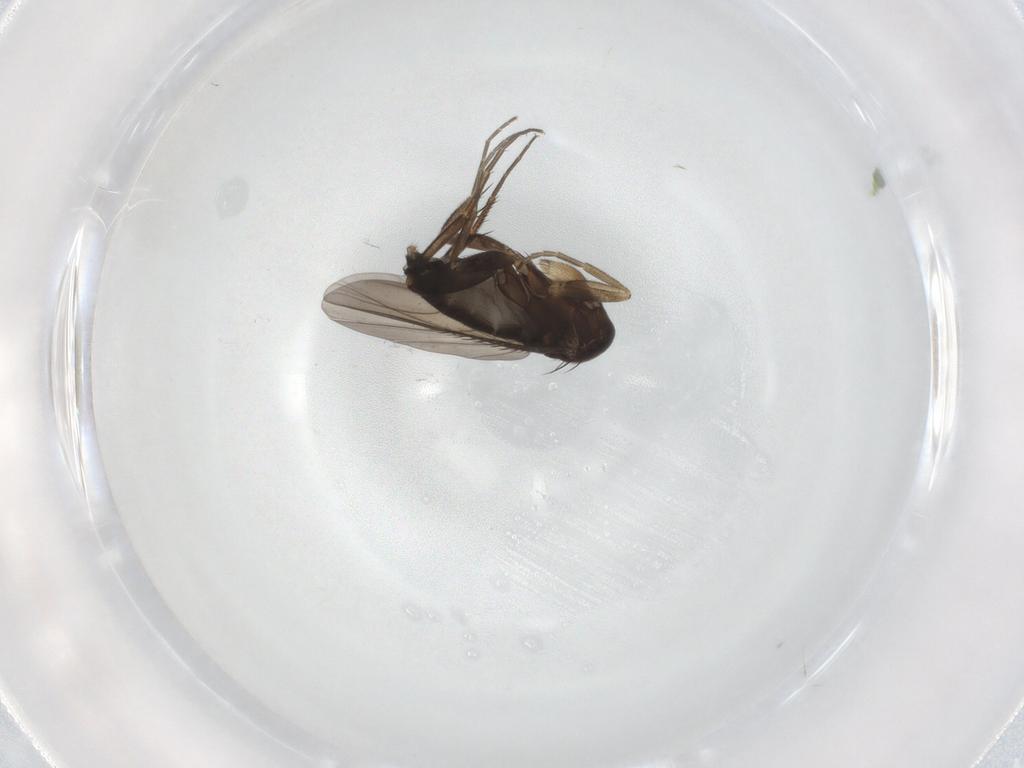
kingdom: Animalia
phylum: Arthropoda
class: Insecta
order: Diptera
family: Phoridae
